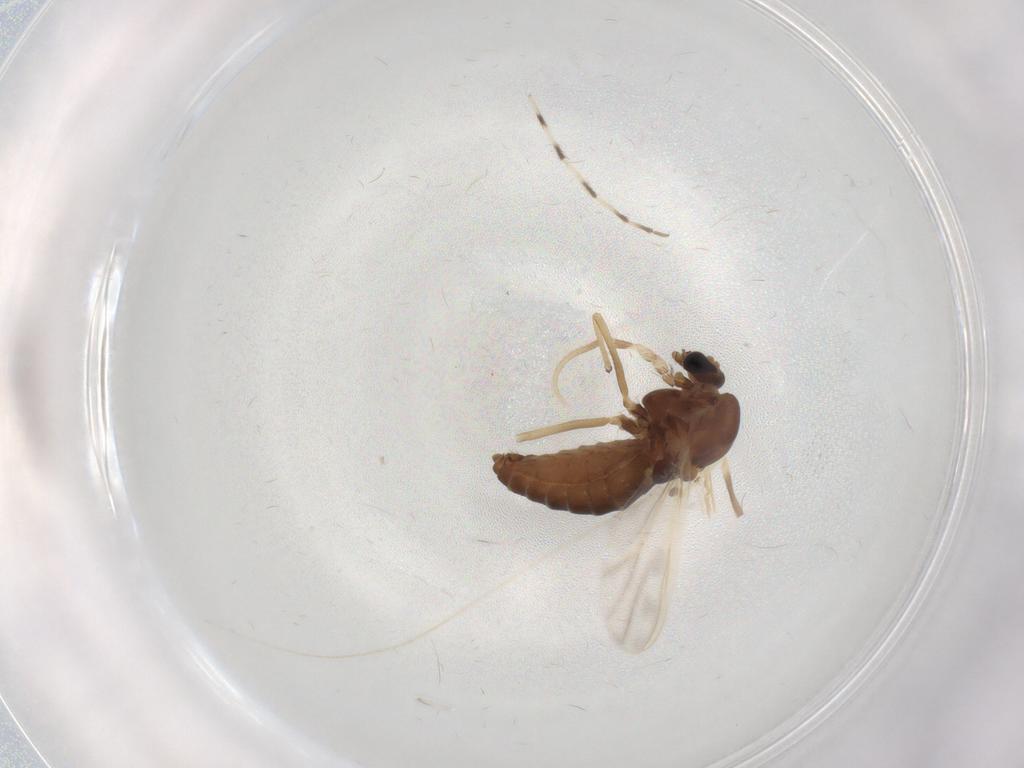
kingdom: Animalia
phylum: Arthropoda
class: Insecta
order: Diptera
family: Chironomidae
